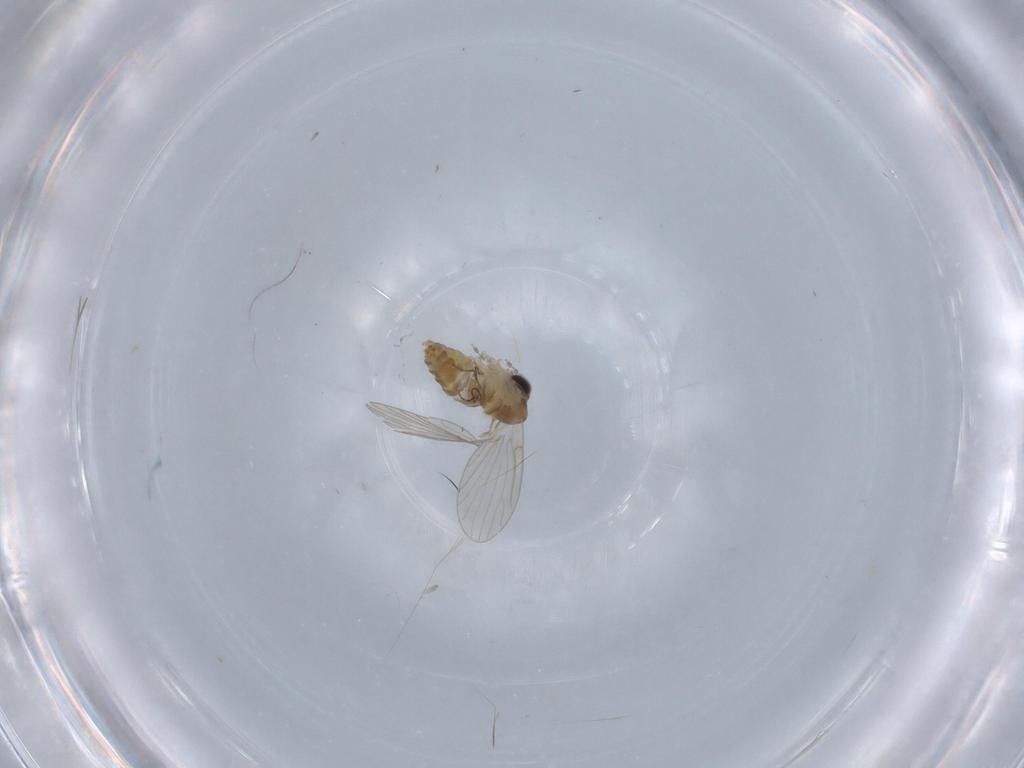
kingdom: Animalia
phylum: Arthropoda
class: Insecta
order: Diptera
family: Psychodidae
